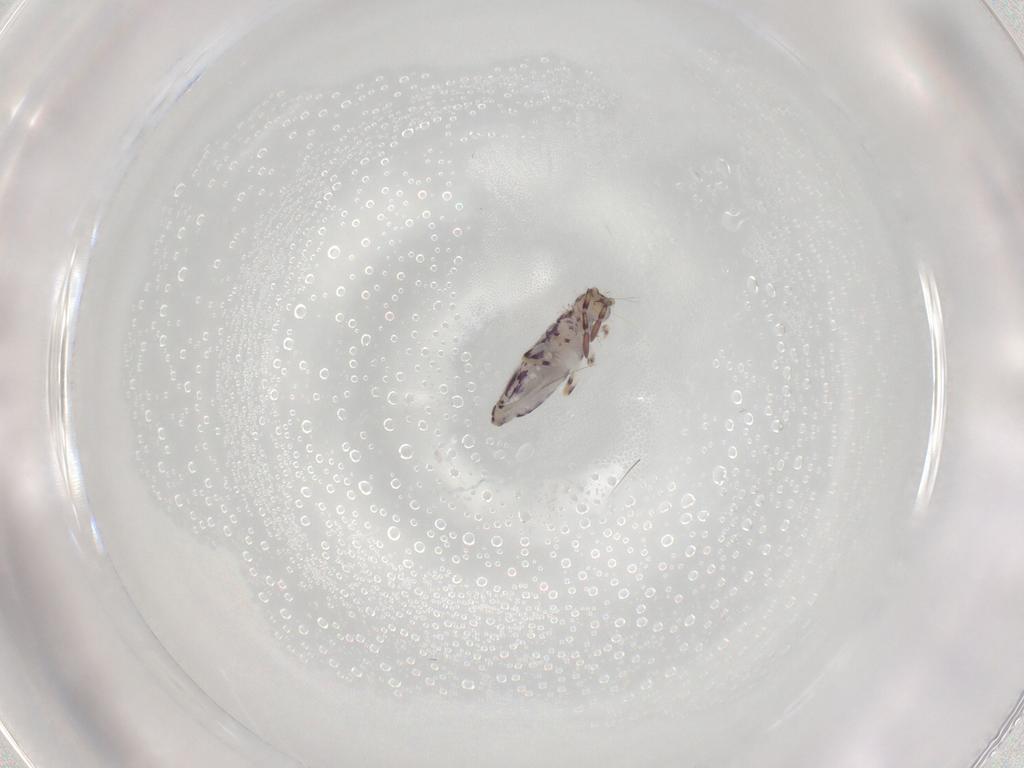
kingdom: Animalia
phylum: Arthropoda
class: Collembola
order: Entomobryomorpha
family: Entomobryidae
